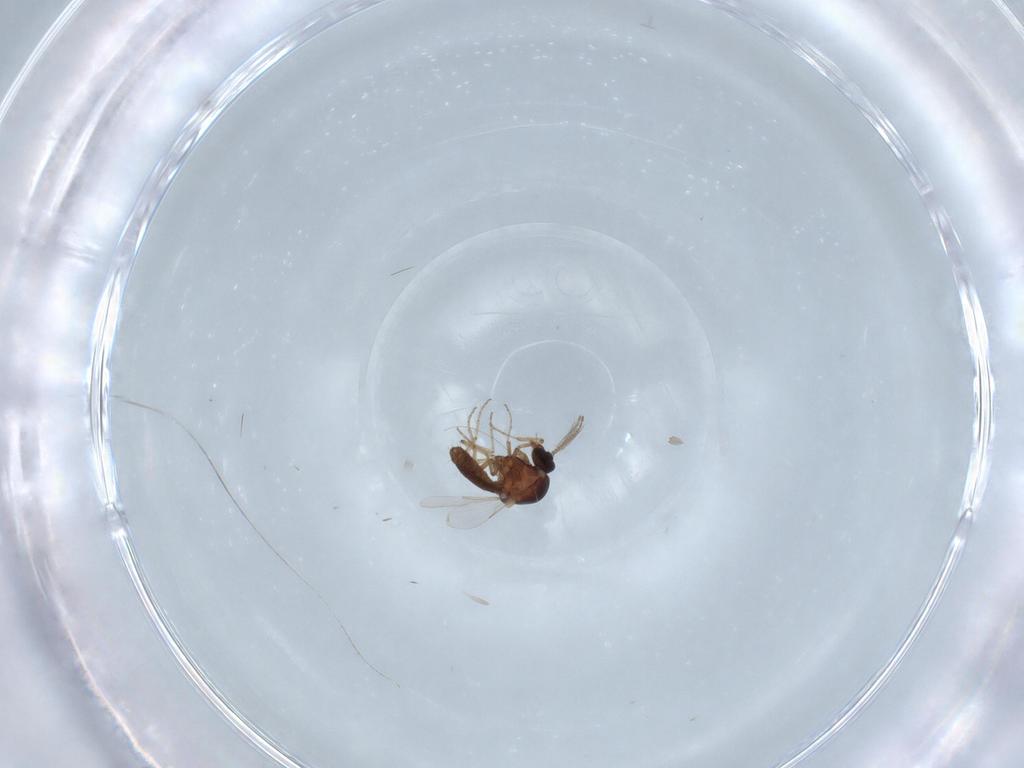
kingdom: Animalia
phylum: Arthropoda
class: Insecta
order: Diptera
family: Ceratopogonidae
